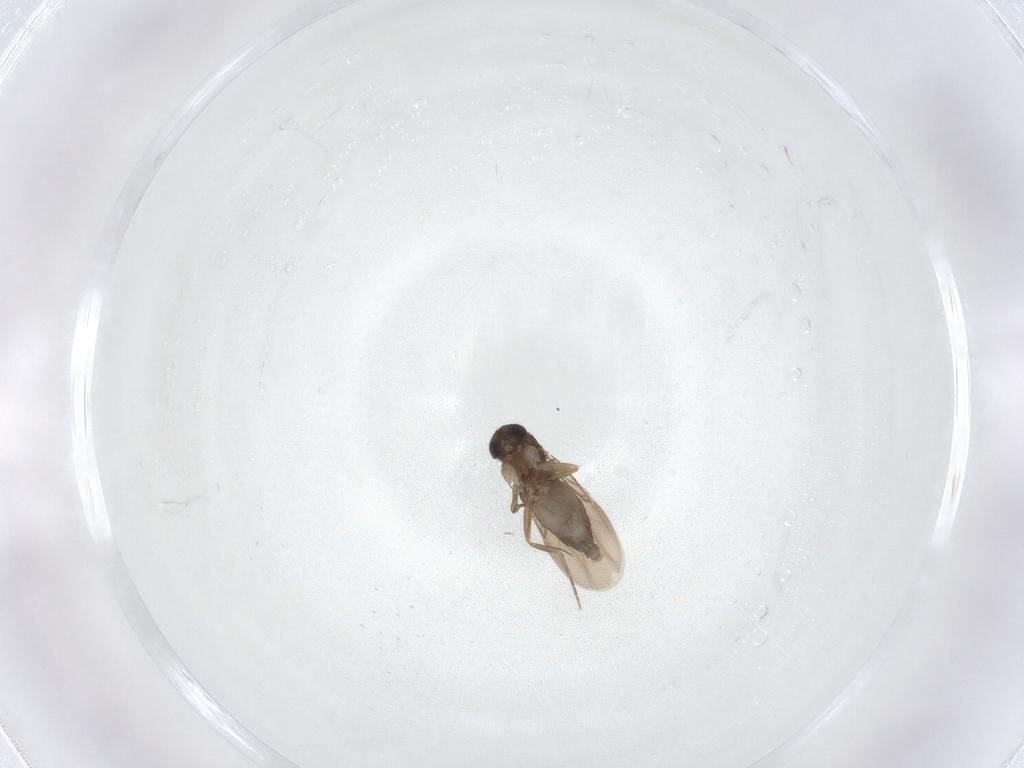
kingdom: Animalia
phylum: Arthropoda
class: Insecta
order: Diptera
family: Phoridae
